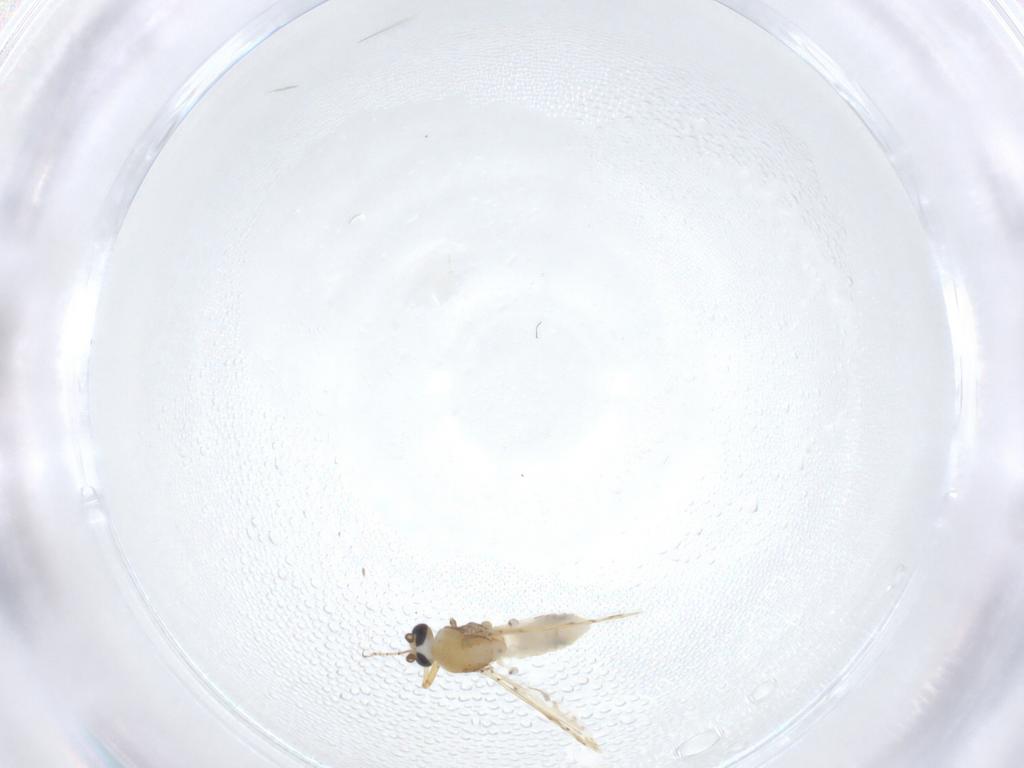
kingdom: Animalia
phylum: Arthropoda
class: Insecta
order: Diptera
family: Ceratopogonidae
